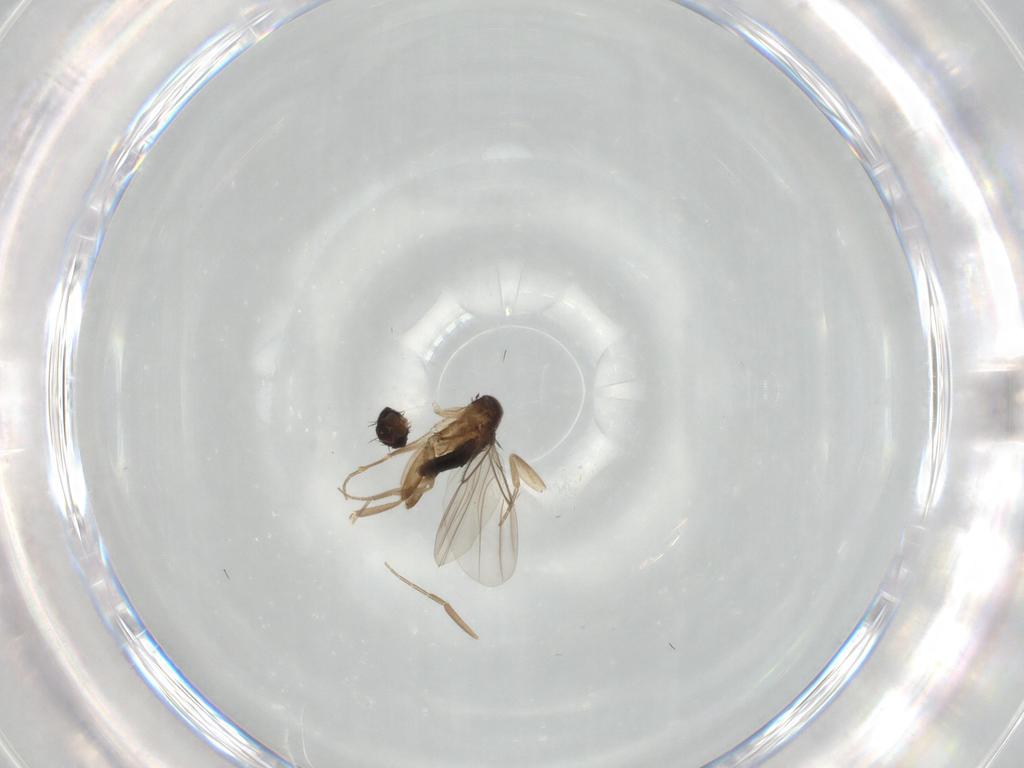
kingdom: Animalia
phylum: Arthropoda
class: Insecta
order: Diptera
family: Phoridae
